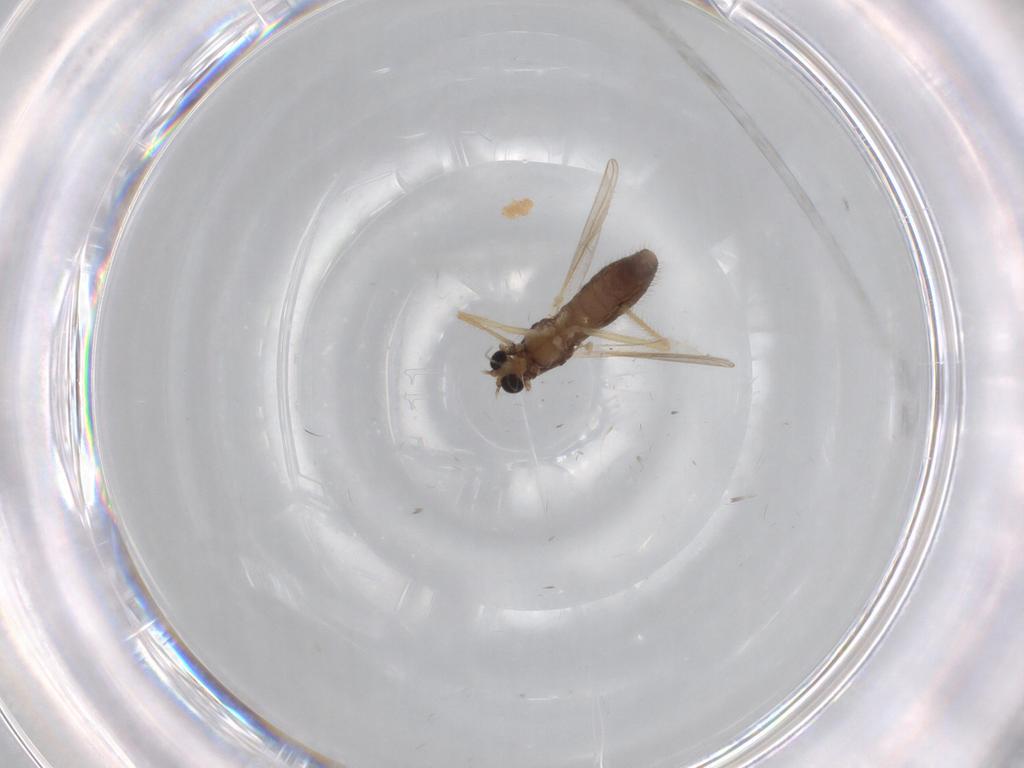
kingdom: Animalia
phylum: Arthropoda
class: Insecta
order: Diptera
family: Chironomidae
